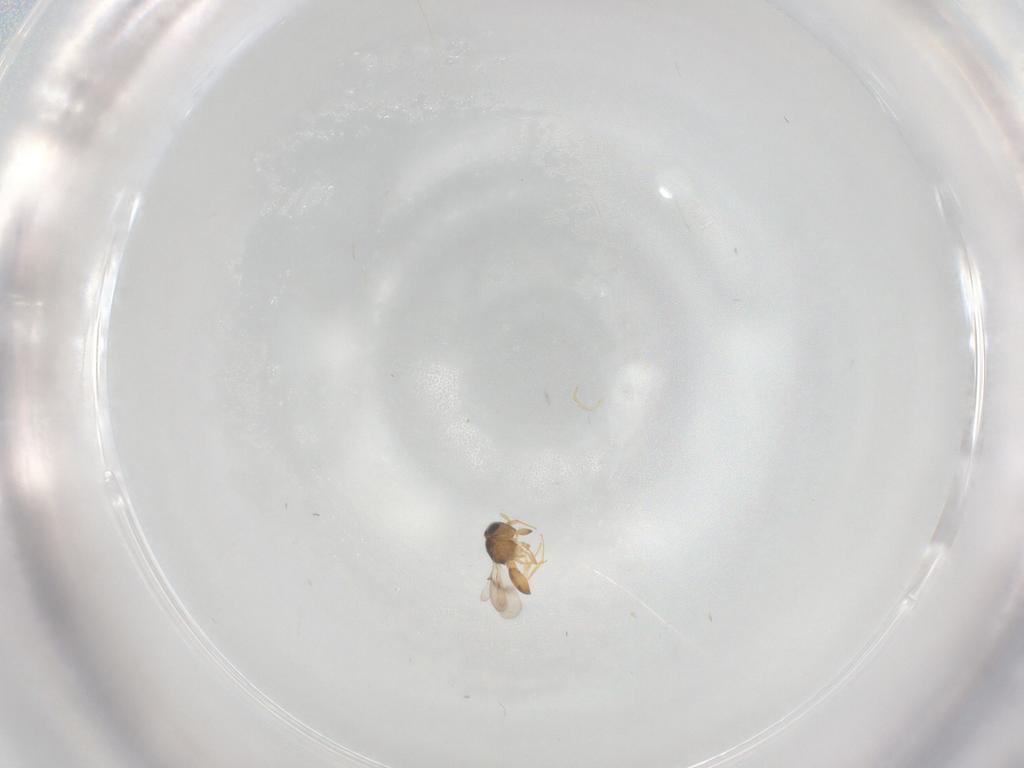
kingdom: Animalia
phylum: Arthropoda
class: Insecta
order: Hymenoptera
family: Scelionidae
